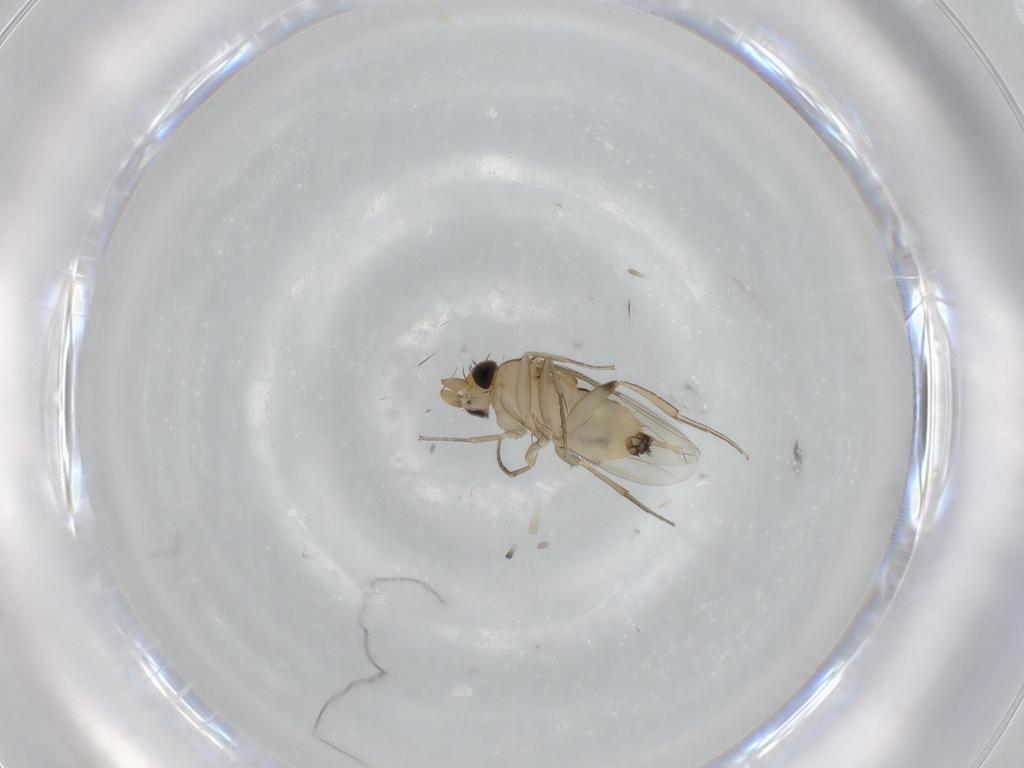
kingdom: Animalia
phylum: Arthropoda
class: Insecta
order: Diptera
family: Phoridae
